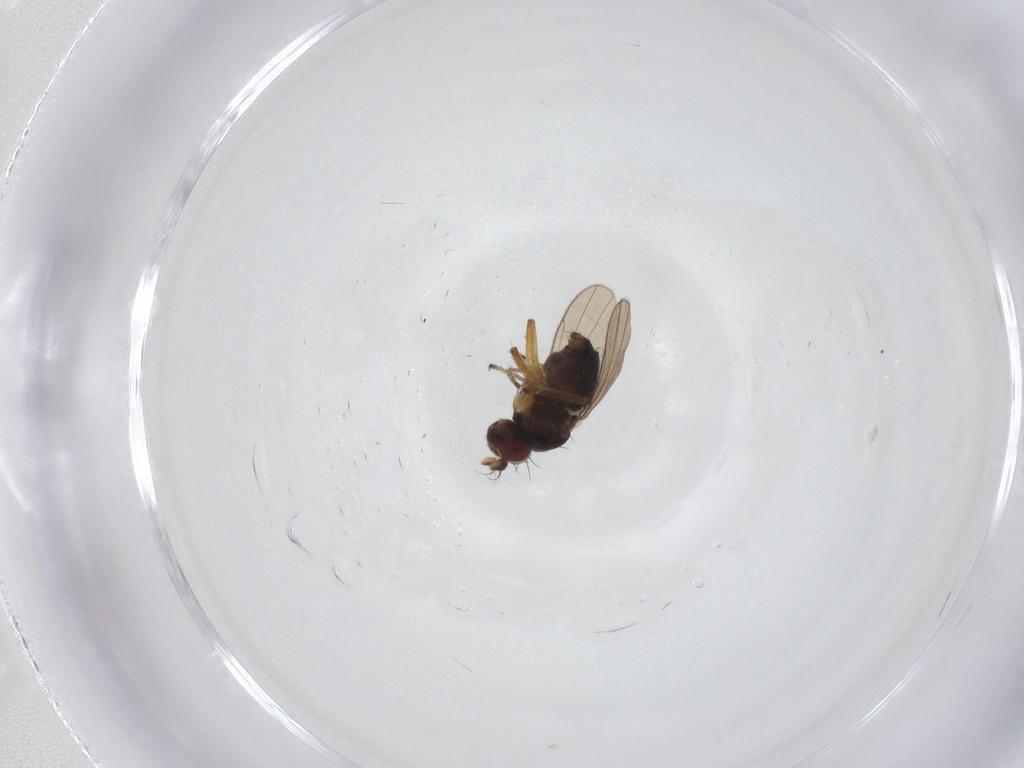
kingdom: Animalia
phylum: Arthropoda
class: Insecta
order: Diptera
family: Ephydridae
